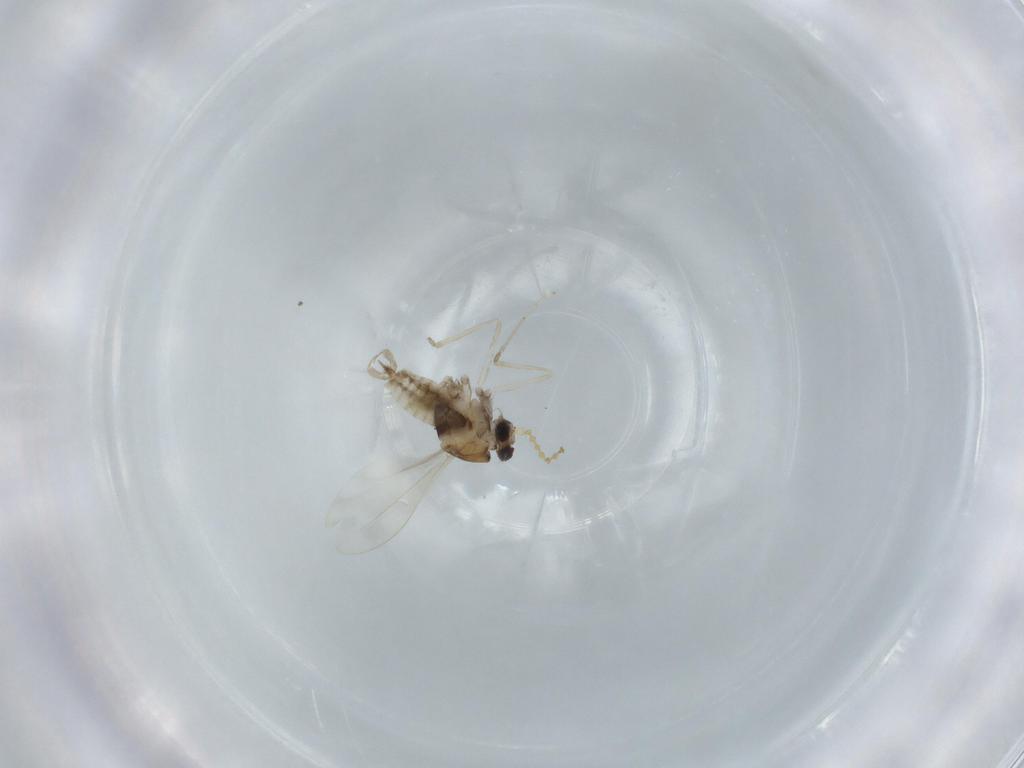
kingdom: Animalia
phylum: Arthropoda
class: Insecta
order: Diptera
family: Cecidomyiidae
